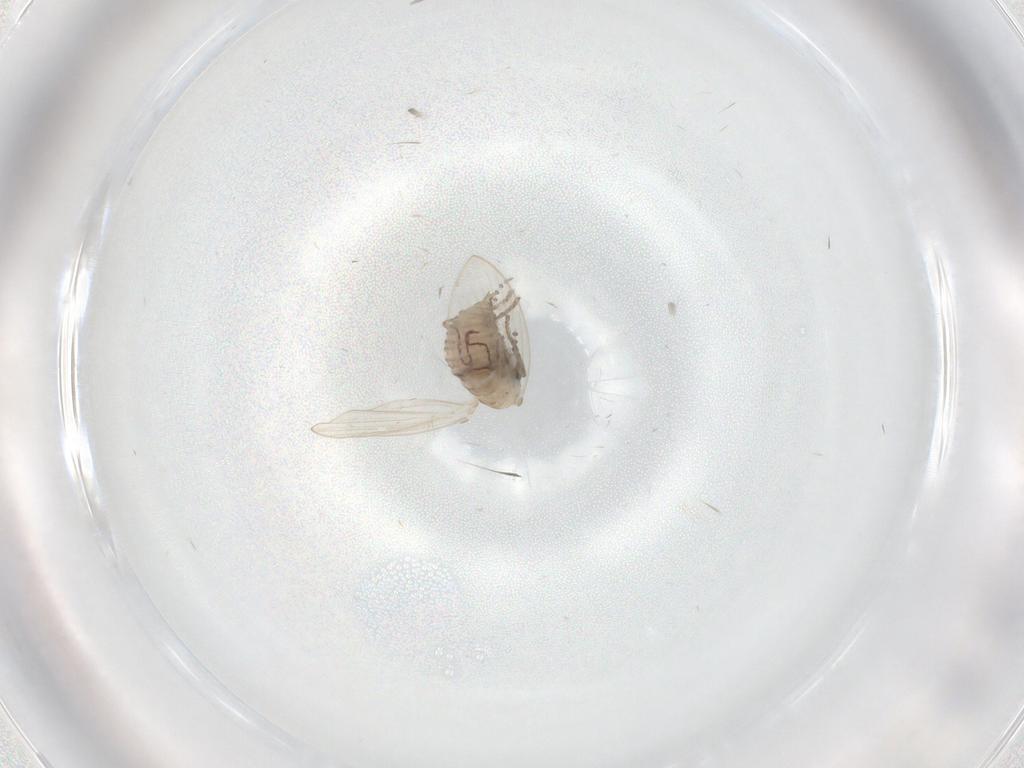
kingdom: Animalia
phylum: Arthropoda
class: Insecta
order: Diptera
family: Psychodidae
